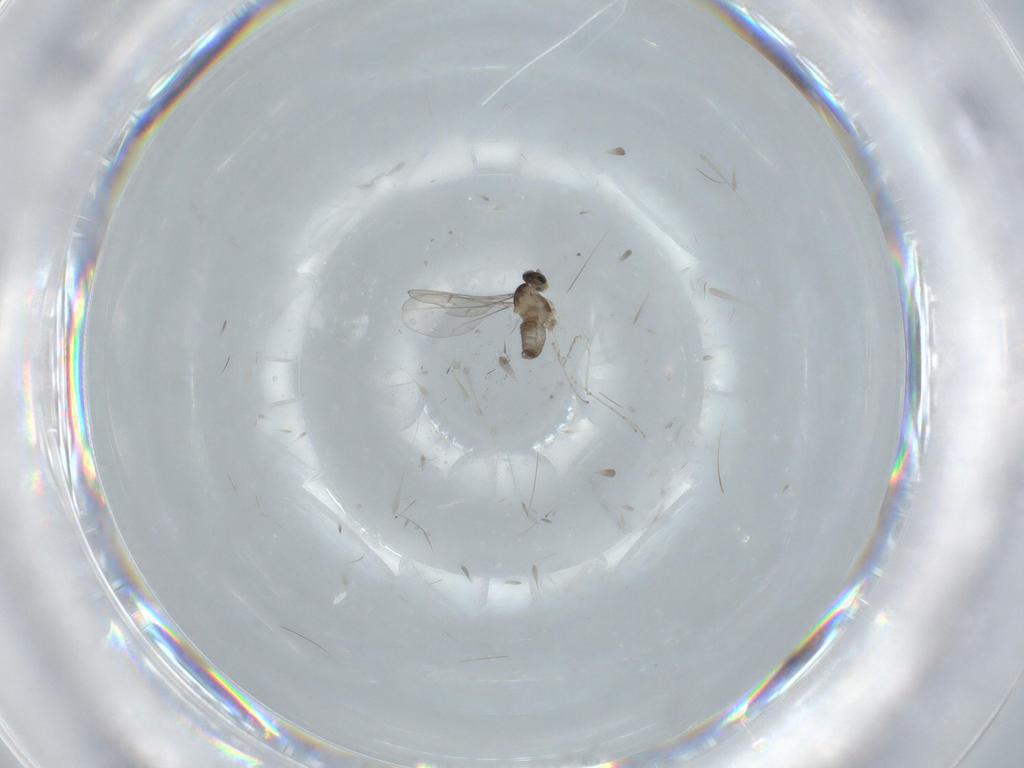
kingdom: Animalia
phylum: Arthropoda
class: Insecta
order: Diptera
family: Cecidomyiidae
